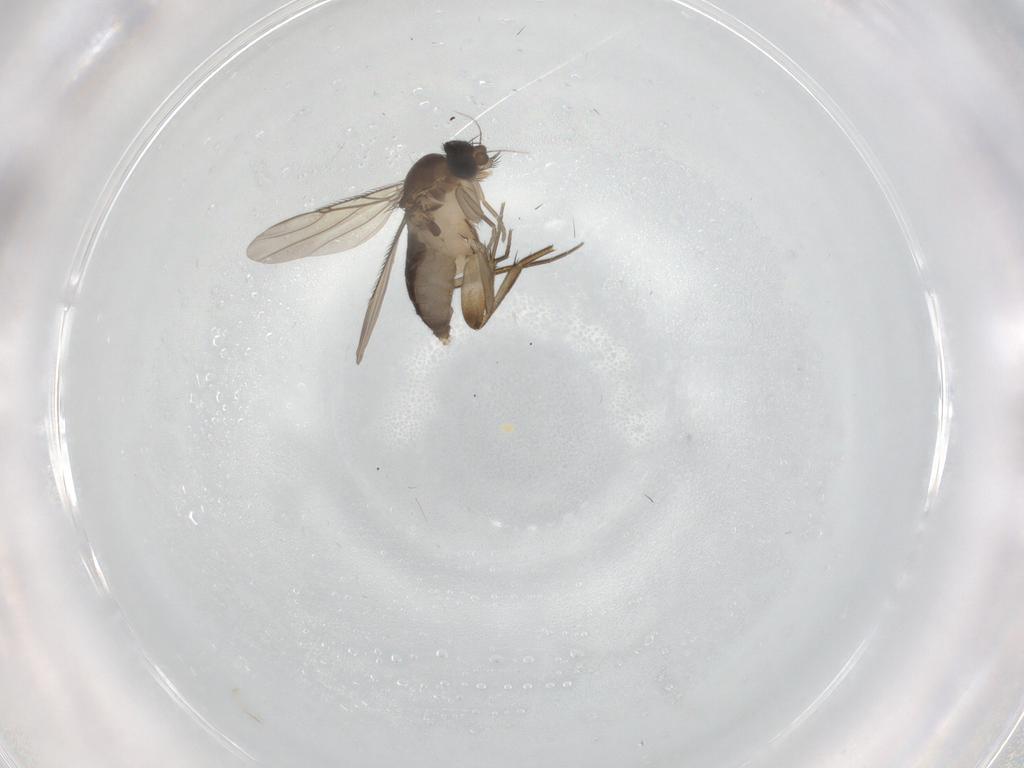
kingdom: Animalia
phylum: Arthropoda
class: Insecta
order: Diptera
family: Phoridae
